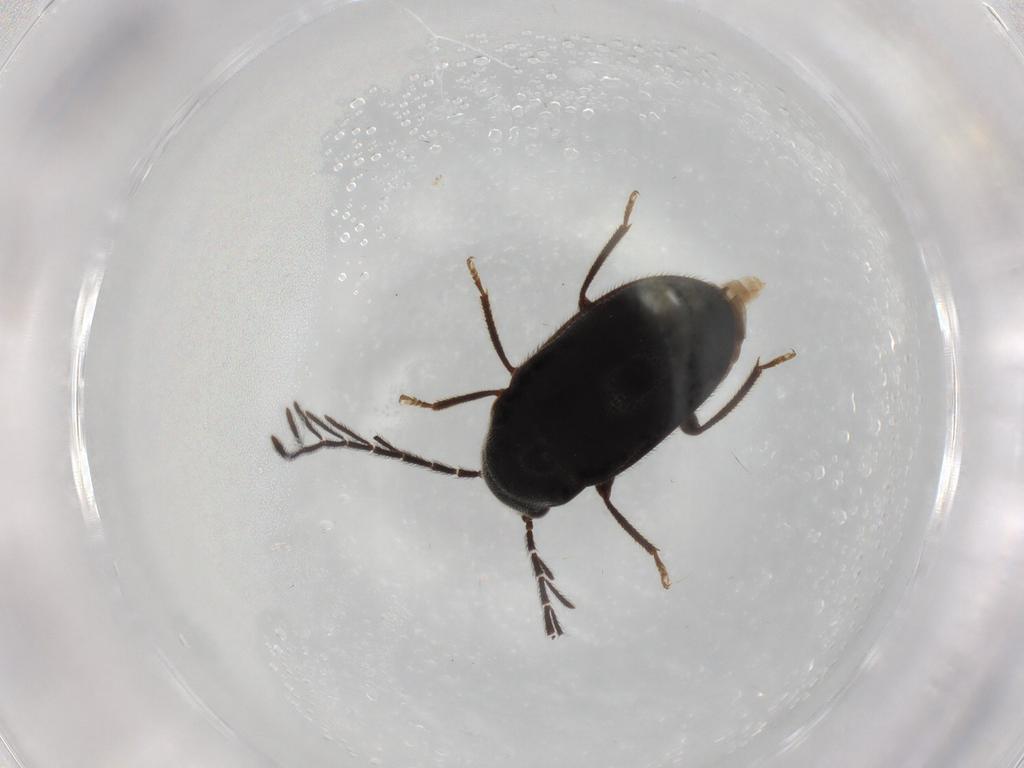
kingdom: Animalia
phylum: Arthropoda
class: Insecta
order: Coleoptera
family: Ptilodactylidae
